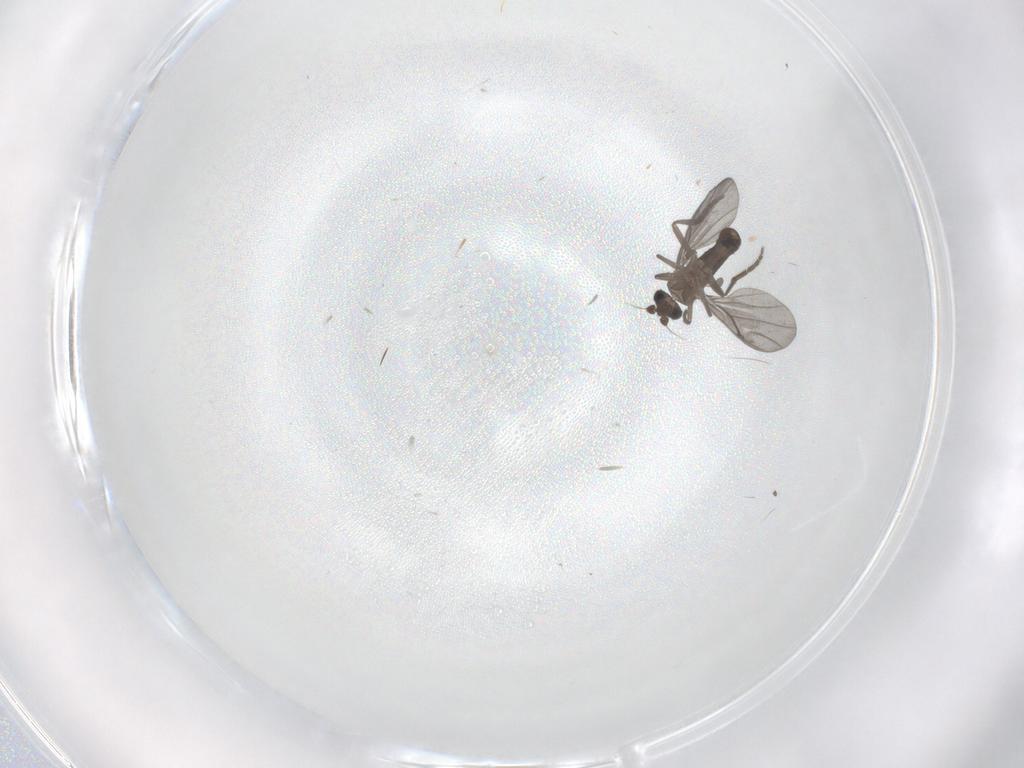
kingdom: Animalia
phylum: Arthropoda
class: Insecta
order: Diptera
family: Phoridae
